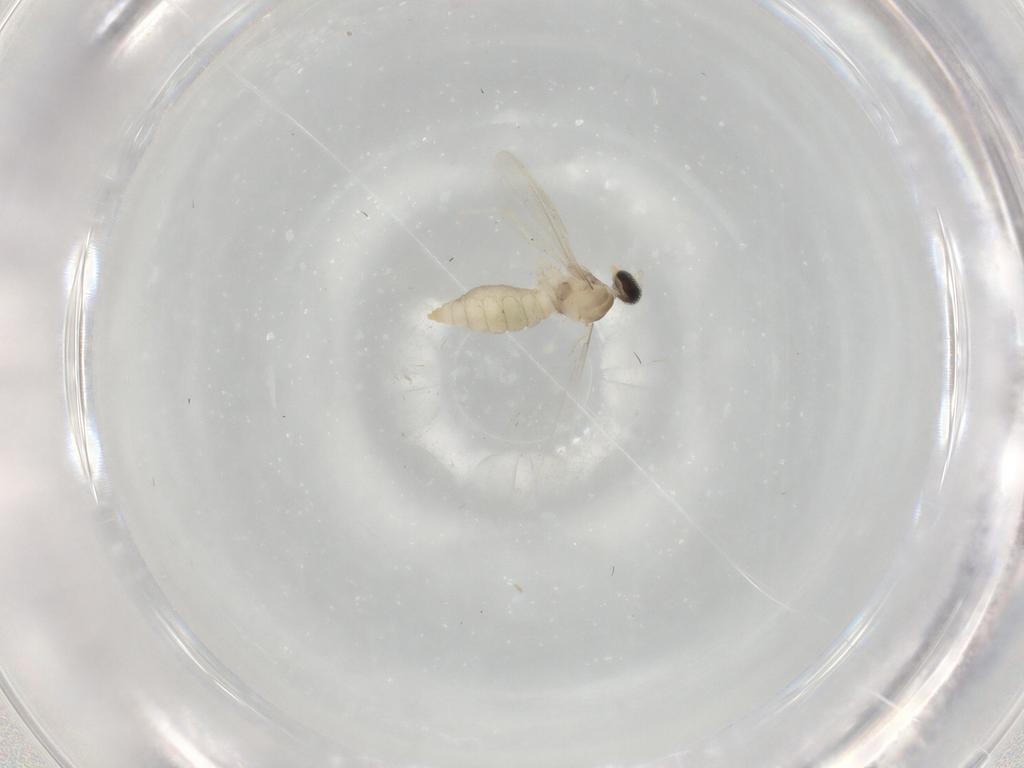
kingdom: Animalia
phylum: Arthropoda
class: Insecta
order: Diptera
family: Cecidomyiidae
